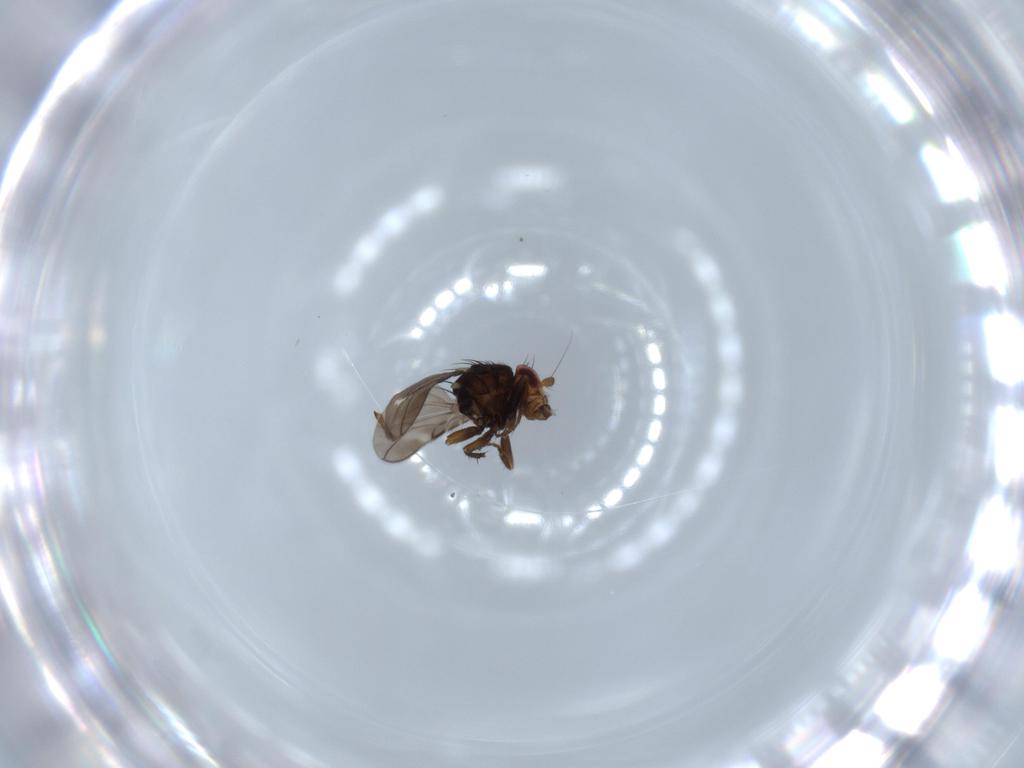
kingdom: Animalia
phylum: Arthropoda
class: Insecta
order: Diptera
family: Sphaeroceridae
